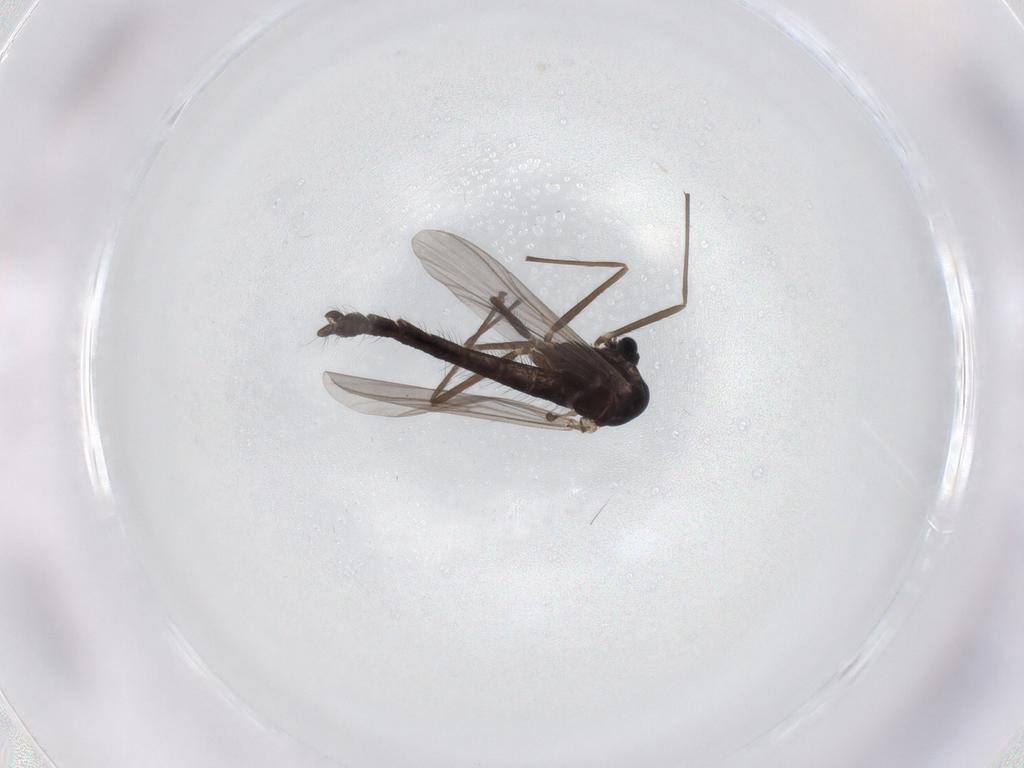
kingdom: Animalia
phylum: Arthropoda
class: Insecta
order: Diptera
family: Chironomidae
